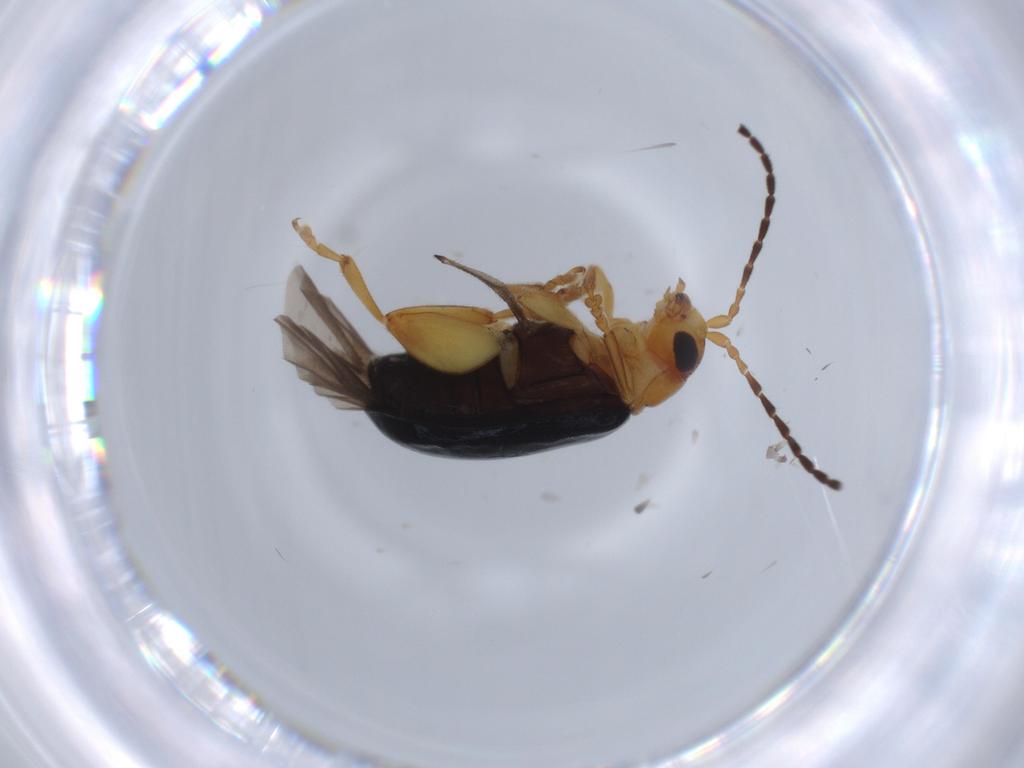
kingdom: Animalia
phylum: Arthropoda
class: Insecta
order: Coleoptera
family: Chrysomelidae
